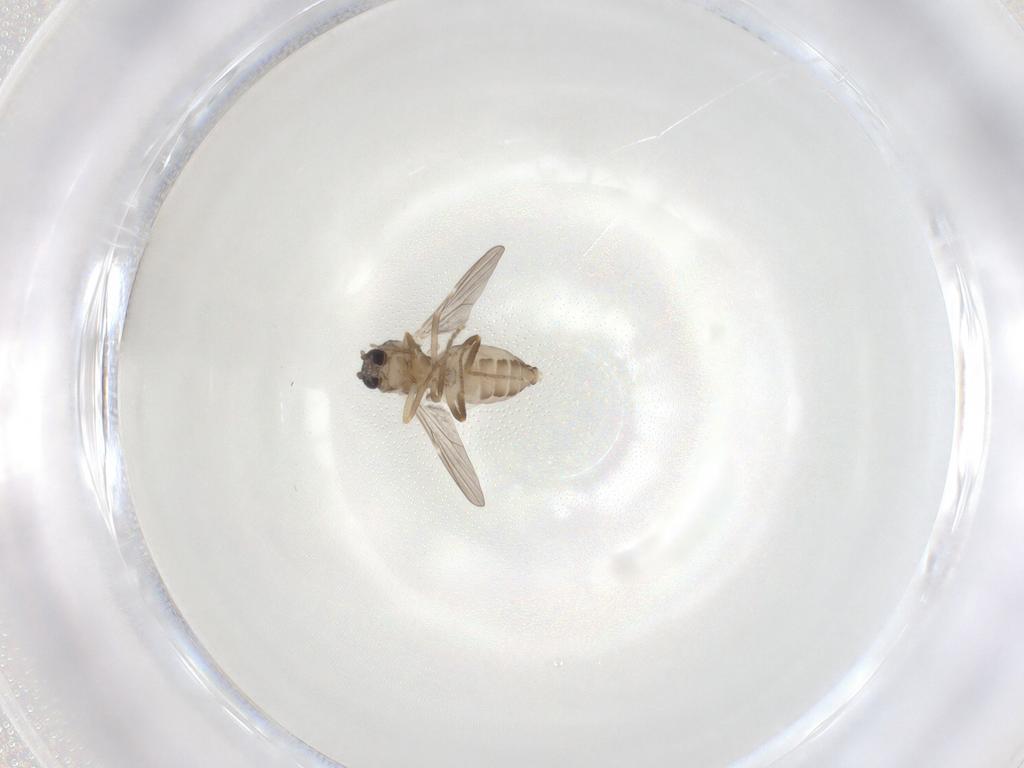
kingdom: Animalia
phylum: Arthropoda
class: Insecta
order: Diptera
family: Ceratopogonidae
